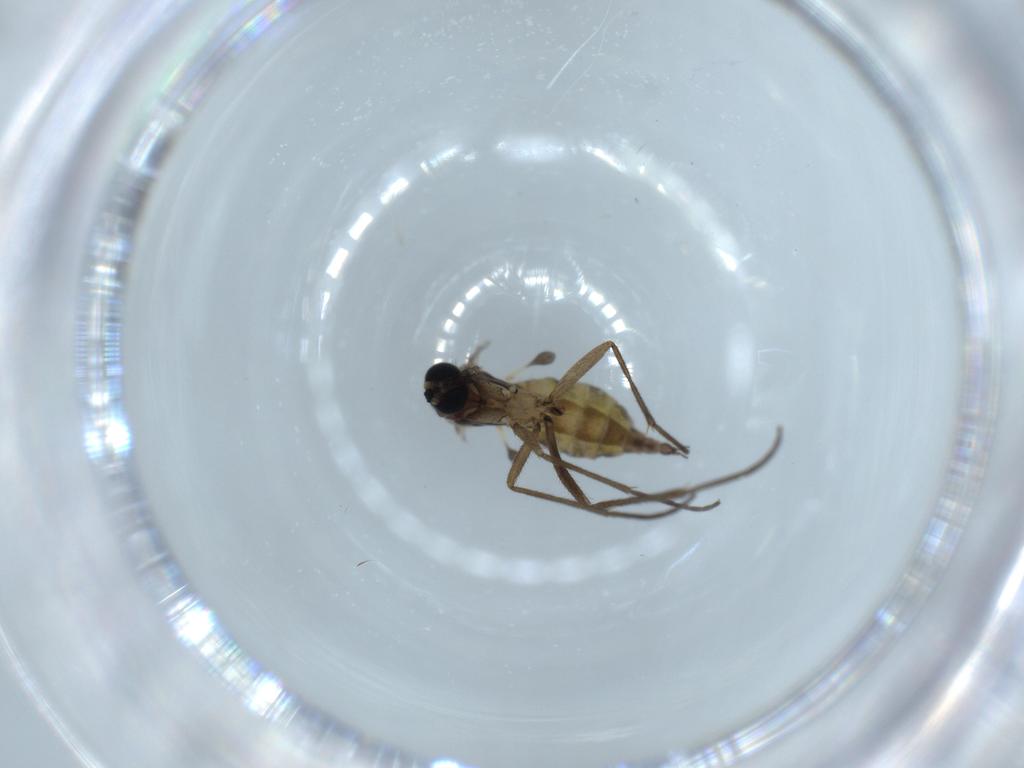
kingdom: Animalia
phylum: Arthropoda
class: Insecta
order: Diptera
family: Sciaridae
